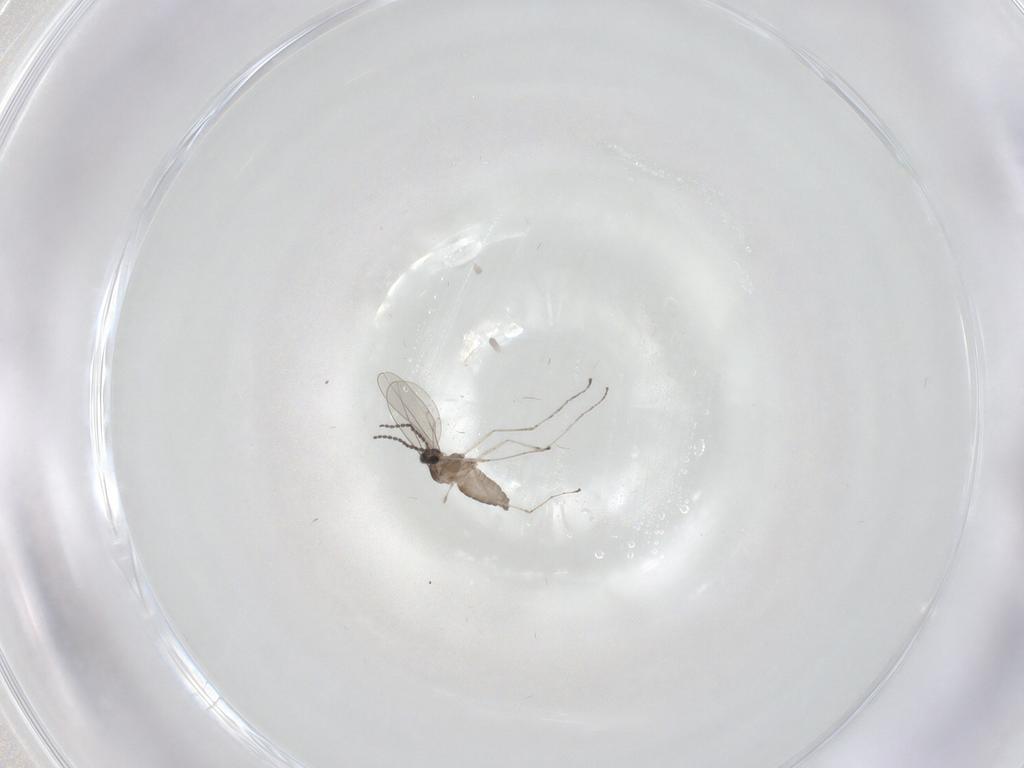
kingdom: Animalia
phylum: Arthropoda
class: Insecta
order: Diptera
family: Cecidomyiidae
